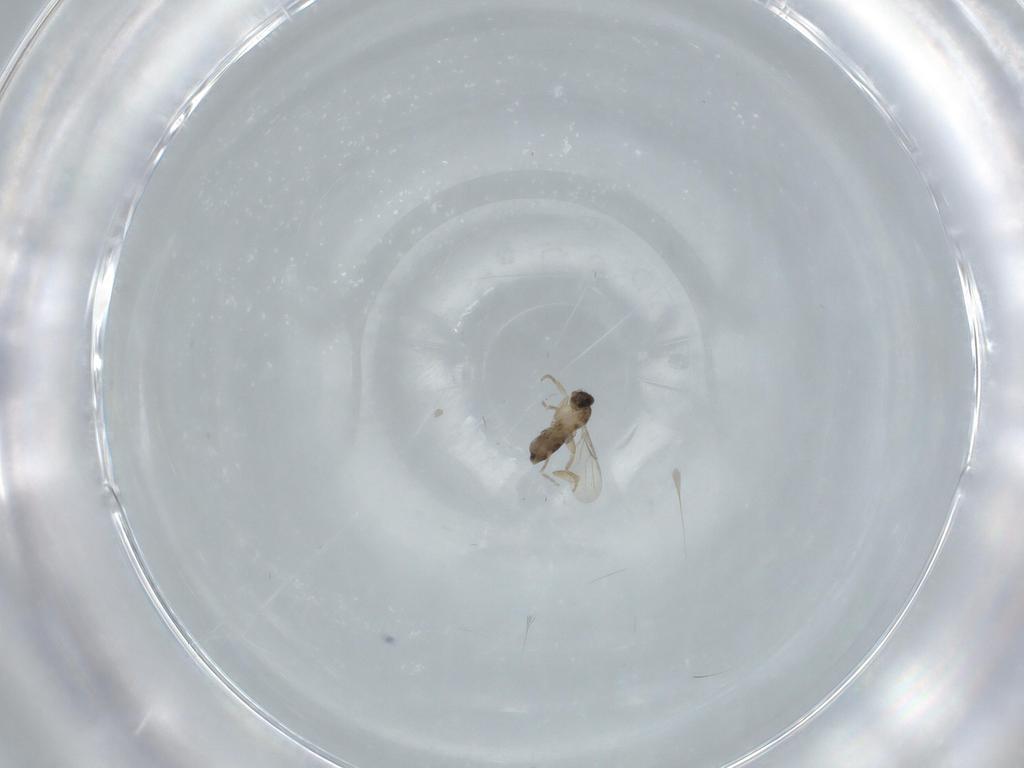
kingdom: Animalia
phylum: Arthropoda
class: Insecta
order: Diptera
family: Phoridae
